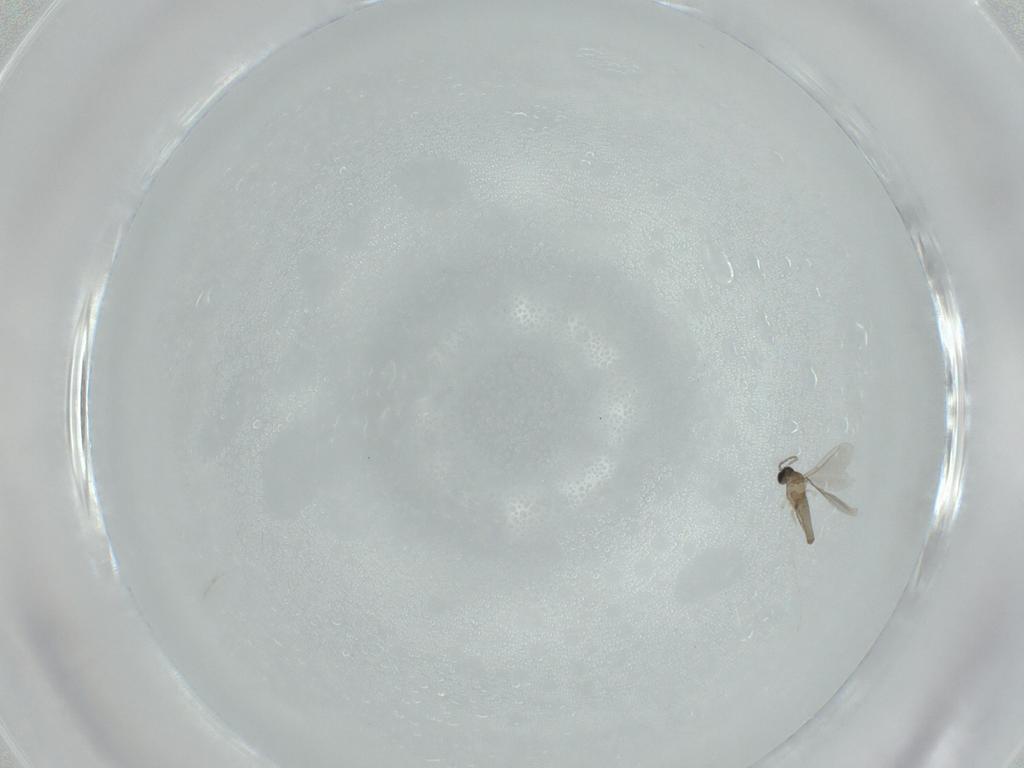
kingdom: Animalia
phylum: Arthropoda
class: Insecta
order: Diptera
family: Cecidomyiidae
